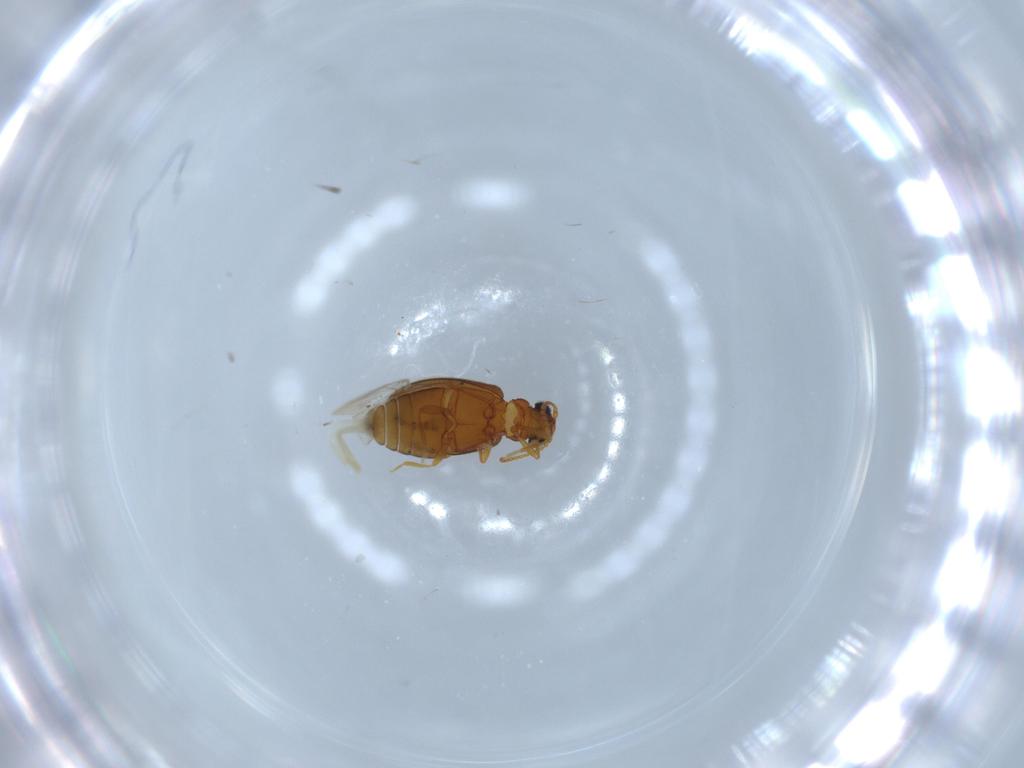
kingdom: Animalia
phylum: Arthropoda
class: Insecta
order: Coleoptera
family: Aderidae
